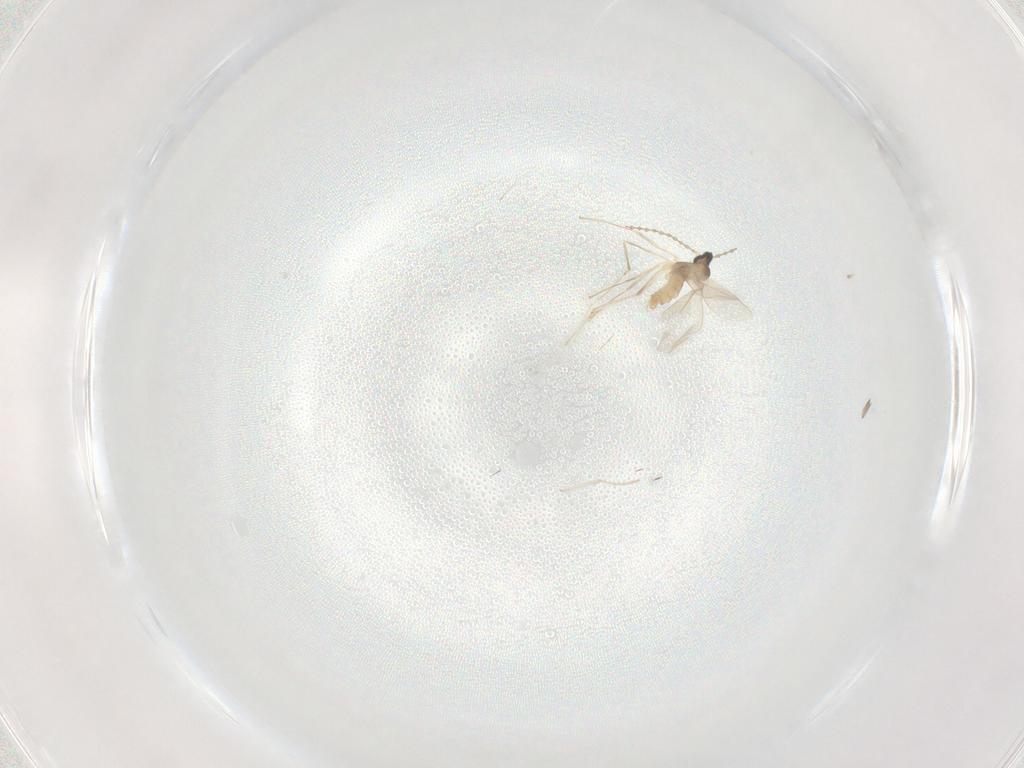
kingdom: Animalia
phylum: Arthropoda
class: Insecta
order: Diptera
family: Cecidomyiidae
